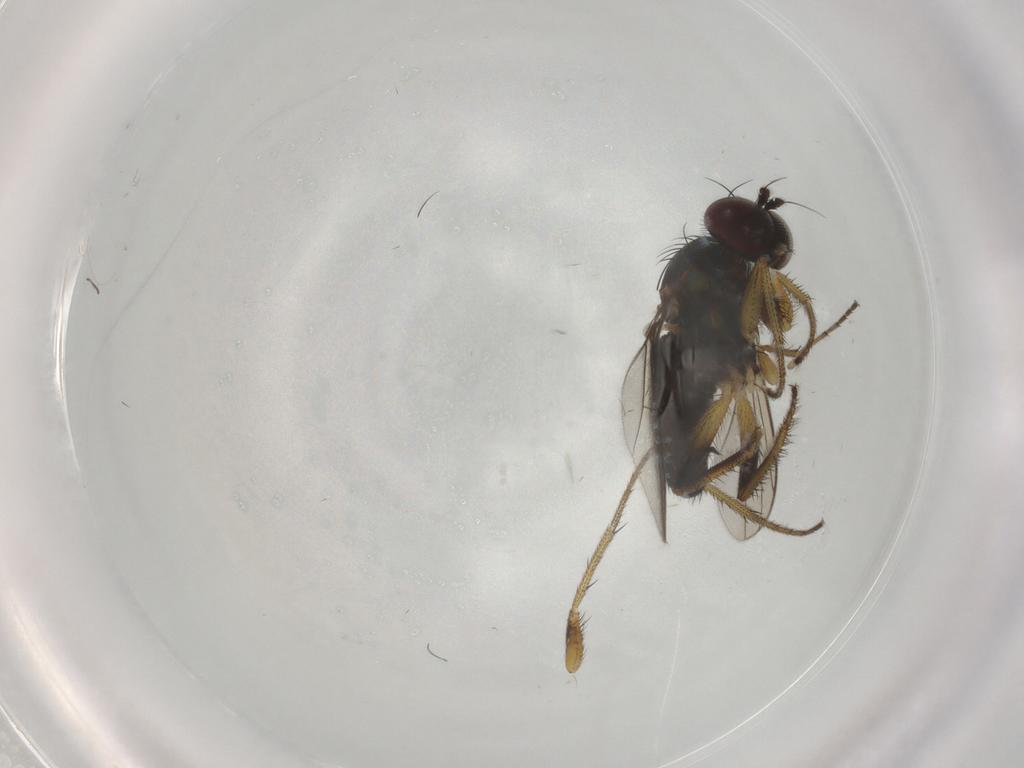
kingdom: Animalia
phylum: Arthropoda
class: Insecta
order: Diptera
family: Dolichopodidae
